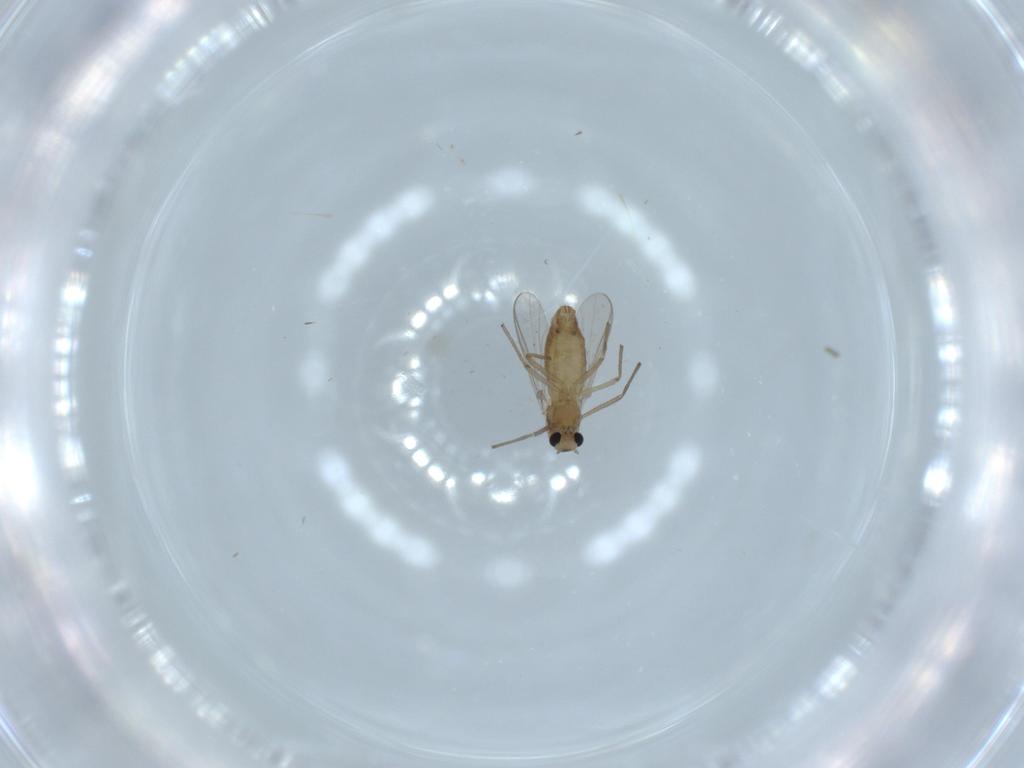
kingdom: Animalia
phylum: Arthropoda
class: Insecta
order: Diptera
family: Chironomidae
